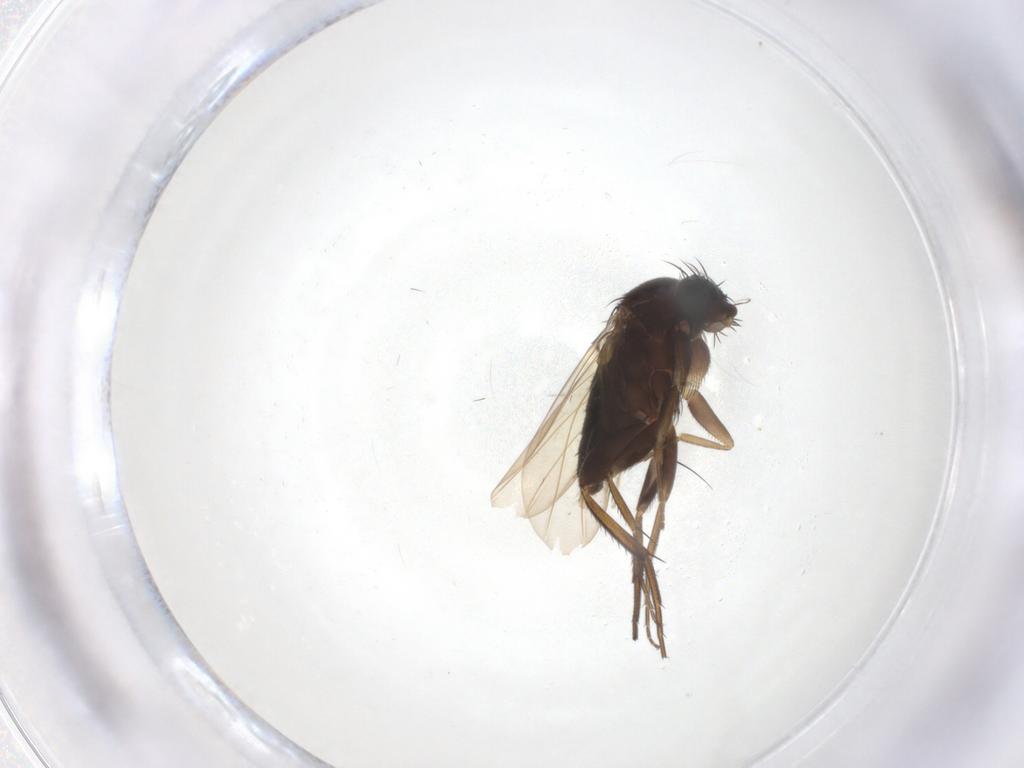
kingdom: Animalia
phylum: Arthropoda
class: Insecta
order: Diptera
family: Phoridae
